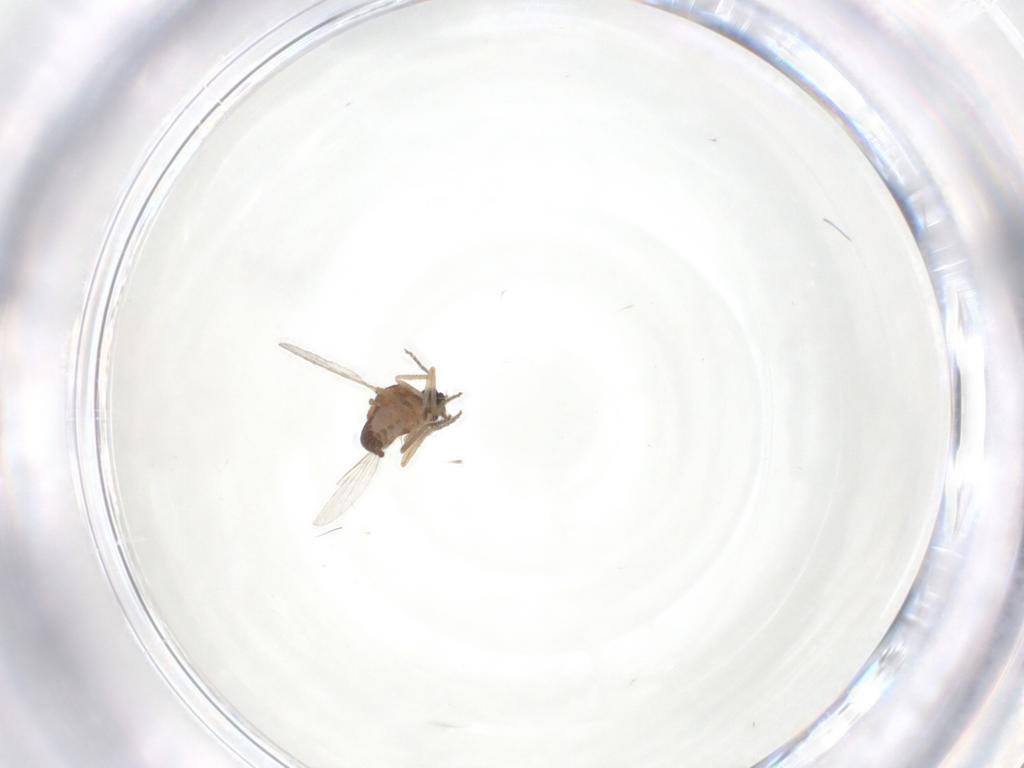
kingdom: Animalia
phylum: Arthropoda
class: Insecta
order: Diptera
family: Ceratopogonidae
